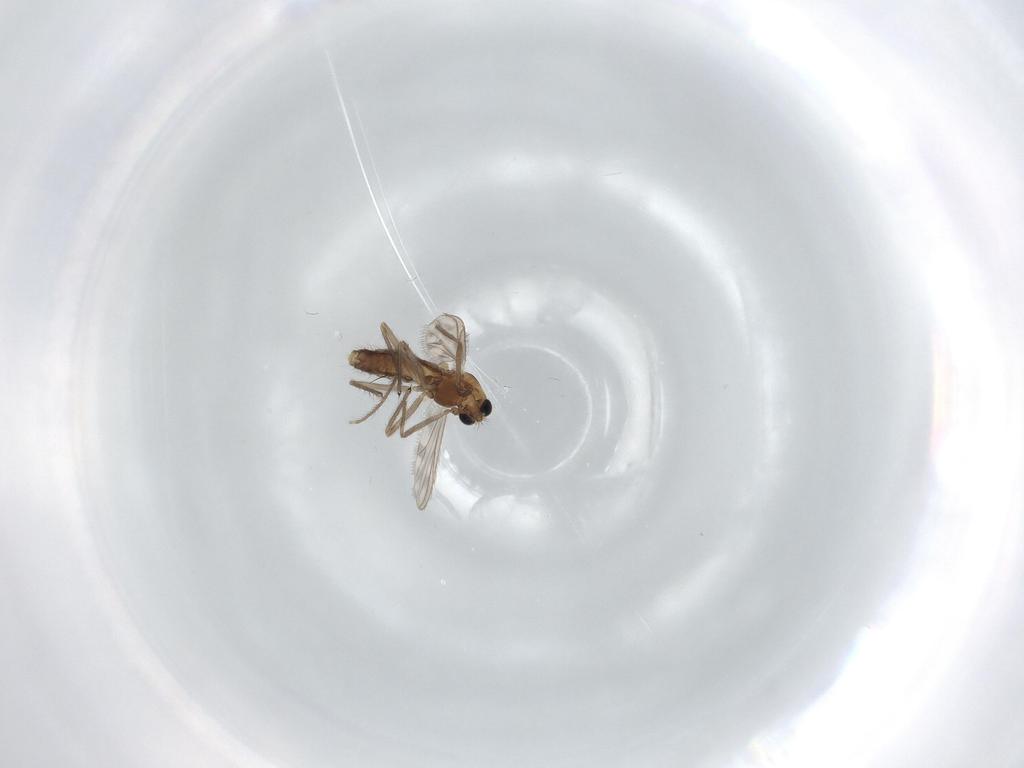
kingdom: Animalia
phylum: Arthropoda
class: Insecta
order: Diptera
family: Chironomidae
